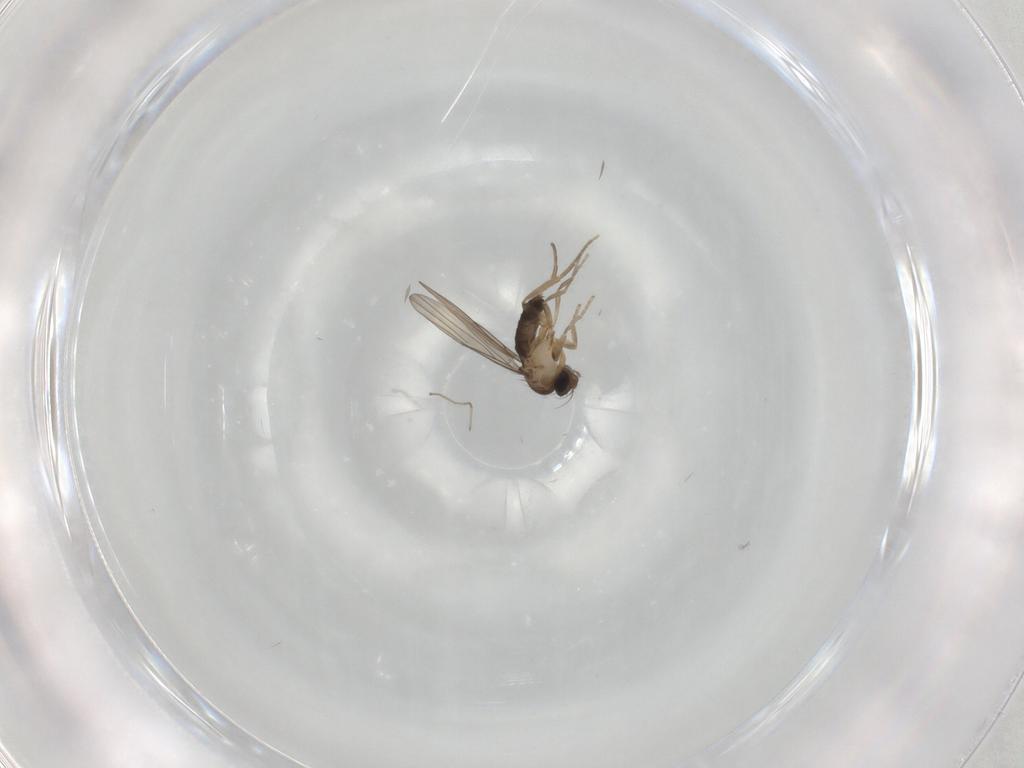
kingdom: Animalia
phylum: Arthropoda
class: Insecta
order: Diptera
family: Phoridae
